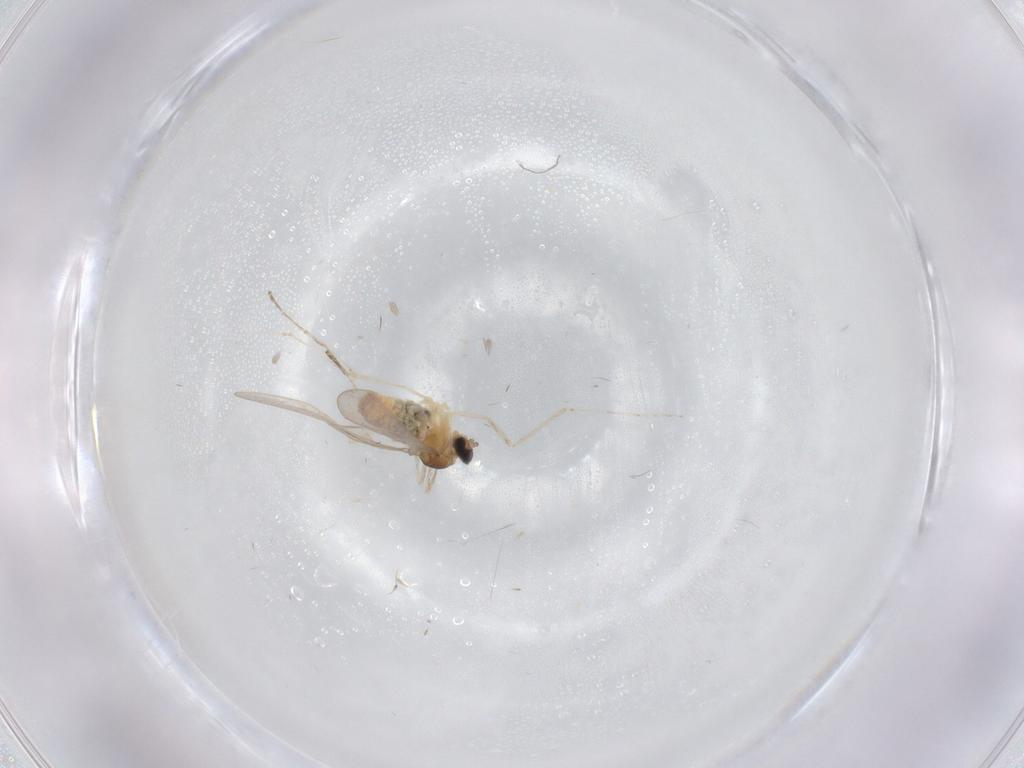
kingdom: Animalia
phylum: Arthropoda
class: Insecta
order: Diptera
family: Cecidomyiidae
